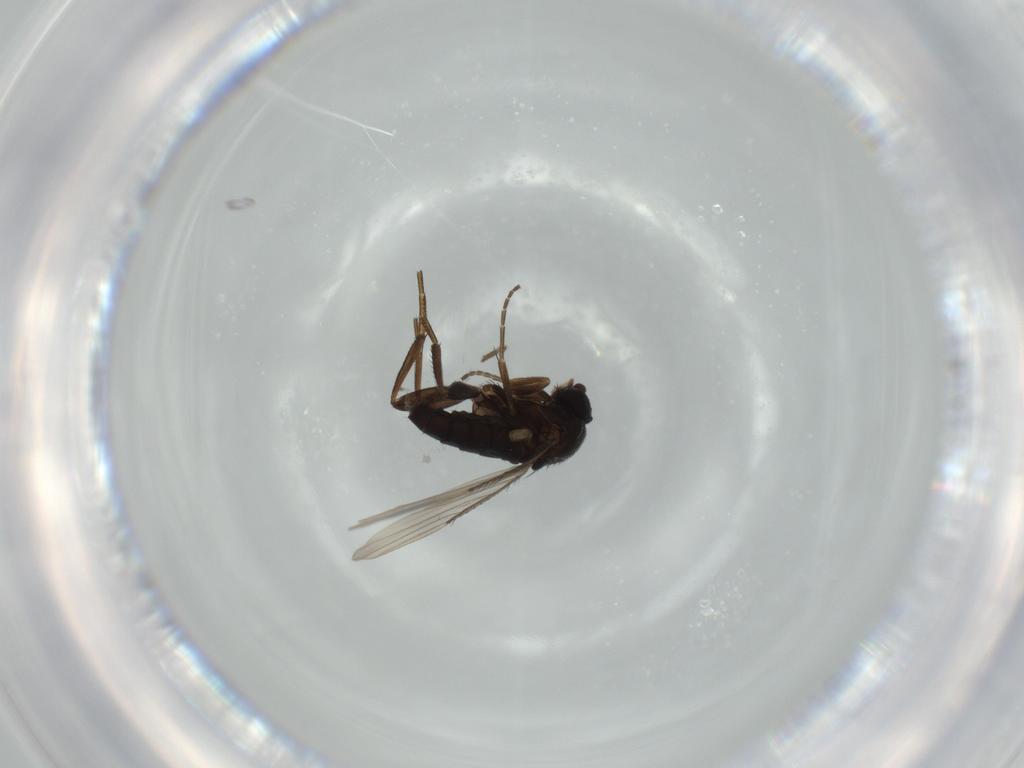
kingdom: Animalia
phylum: Arthropoda
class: Insecta
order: Diptera
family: Phoridae
